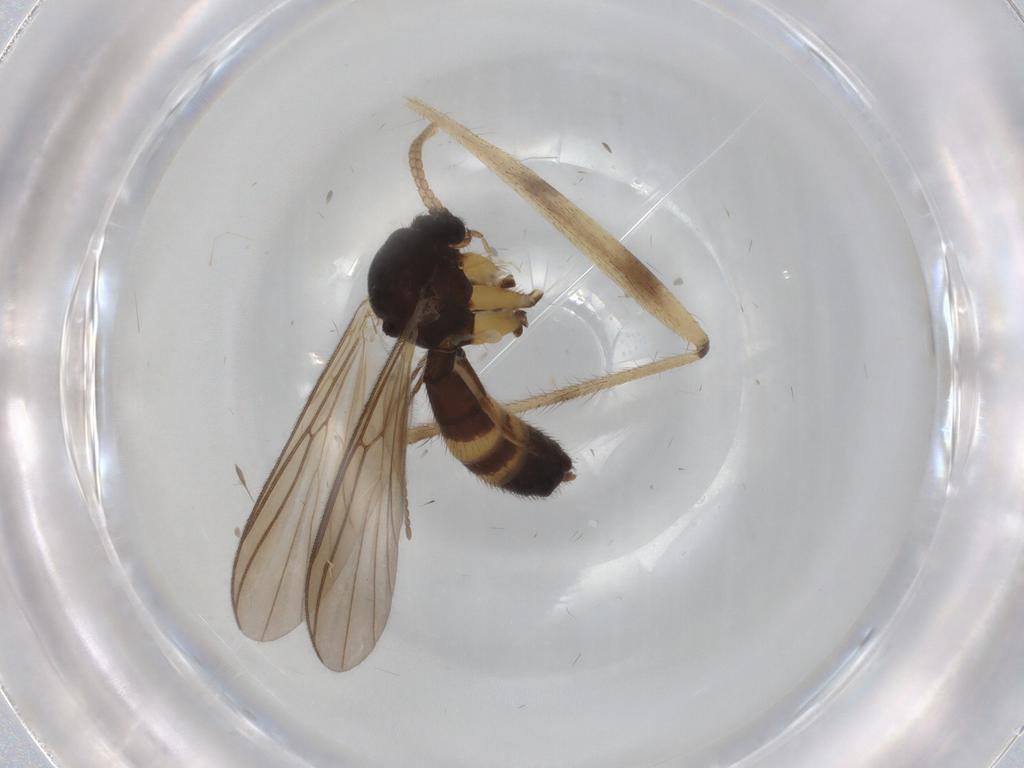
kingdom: Animalia
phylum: Arthropoda
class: Insecta
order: Diptera
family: Mycetophilidae
